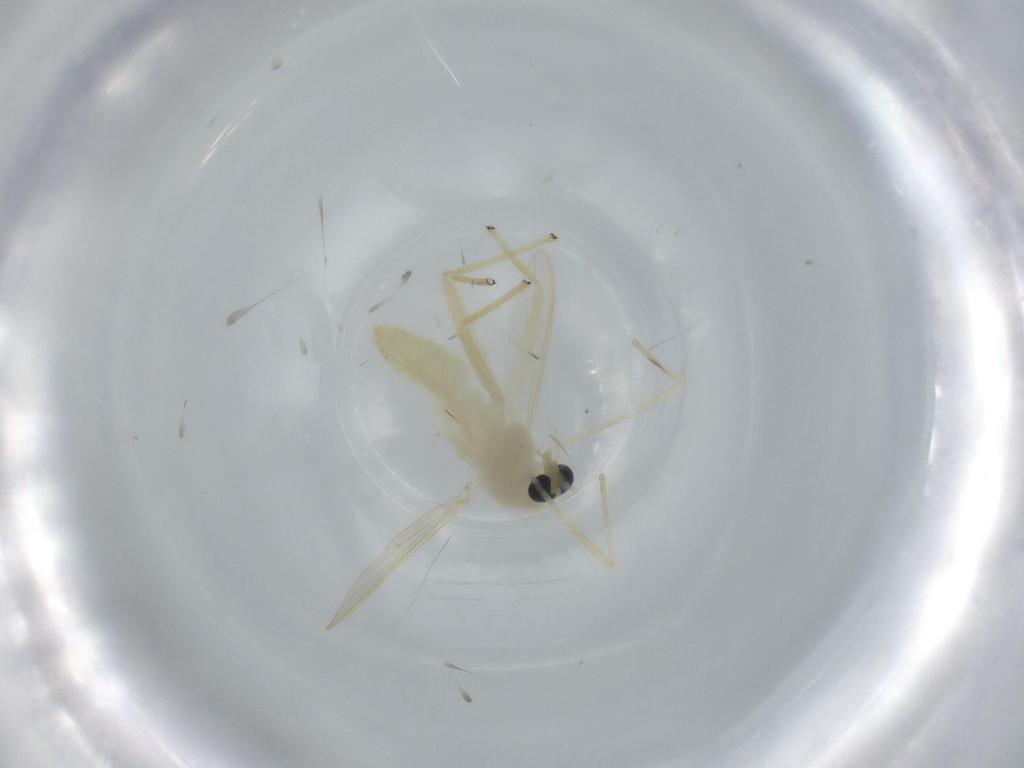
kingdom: Animalia
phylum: Arthropoda
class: Insecta
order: Diptera
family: Chironomidae
